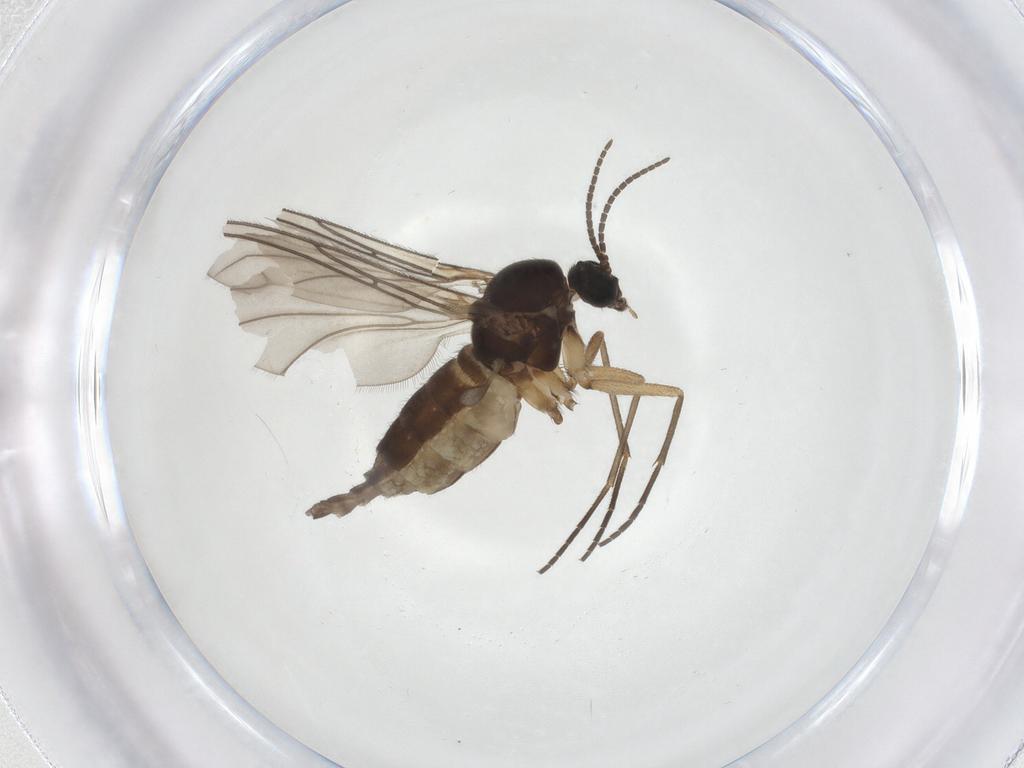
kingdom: Animalia
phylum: Arthropoda
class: Insecta
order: Diptera
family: Sciaridae
